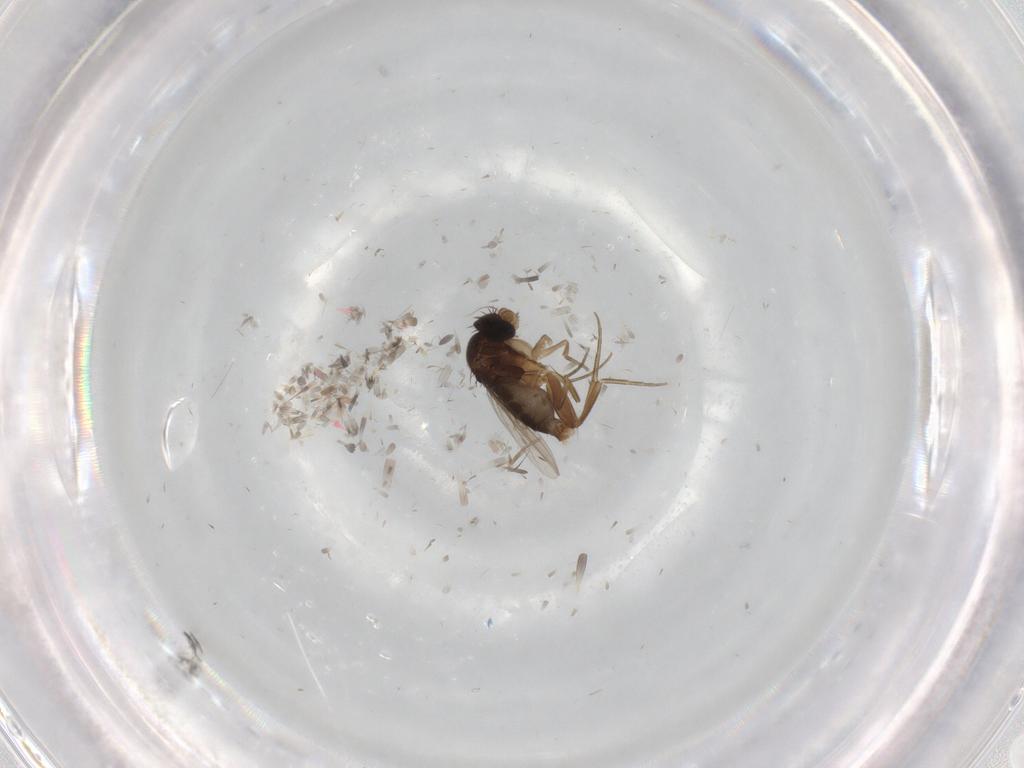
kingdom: Animalia
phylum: Arthropoda
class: Insecta
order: Diptera
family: Phoridae
